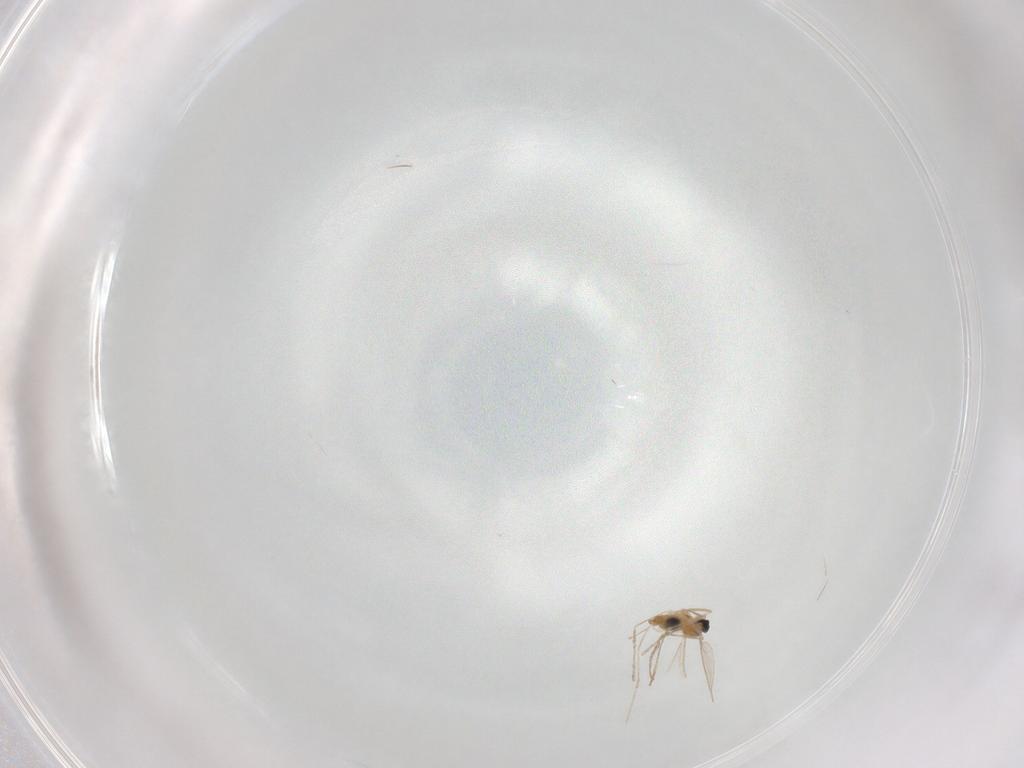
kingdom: Animalia
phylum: Arthropoda
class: Insecta
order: Diptera
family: Cecidomyiidae
